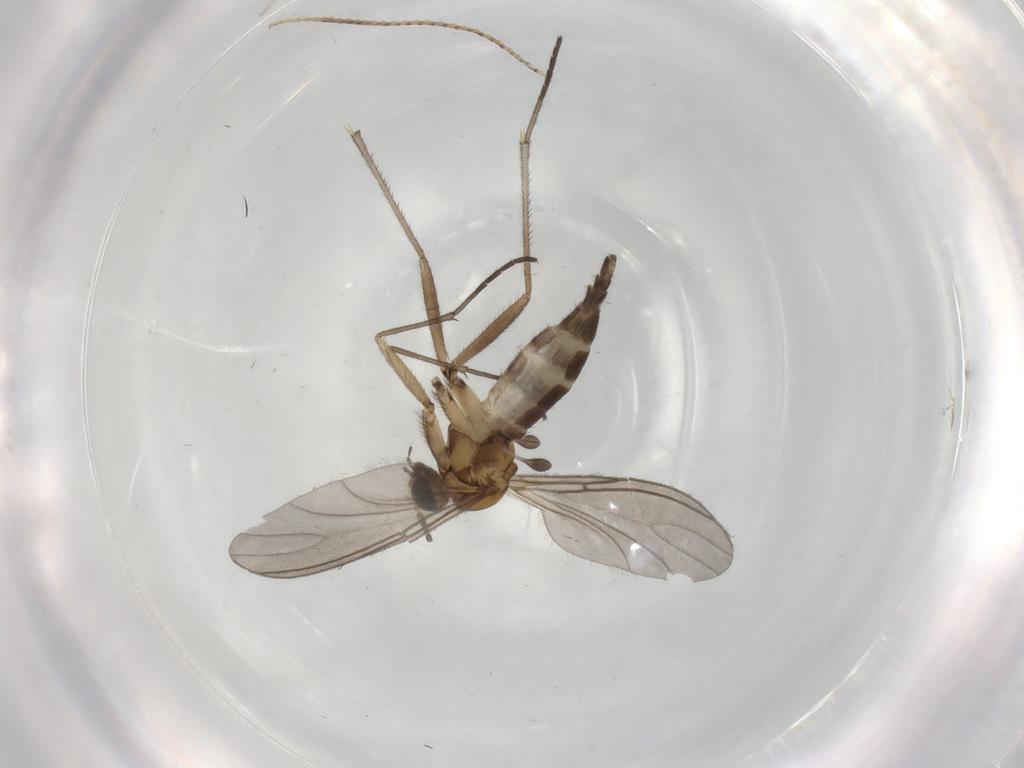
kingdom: Animalia
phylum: Arthropoda
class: Insecta
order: Diptera
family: Sciaridae
